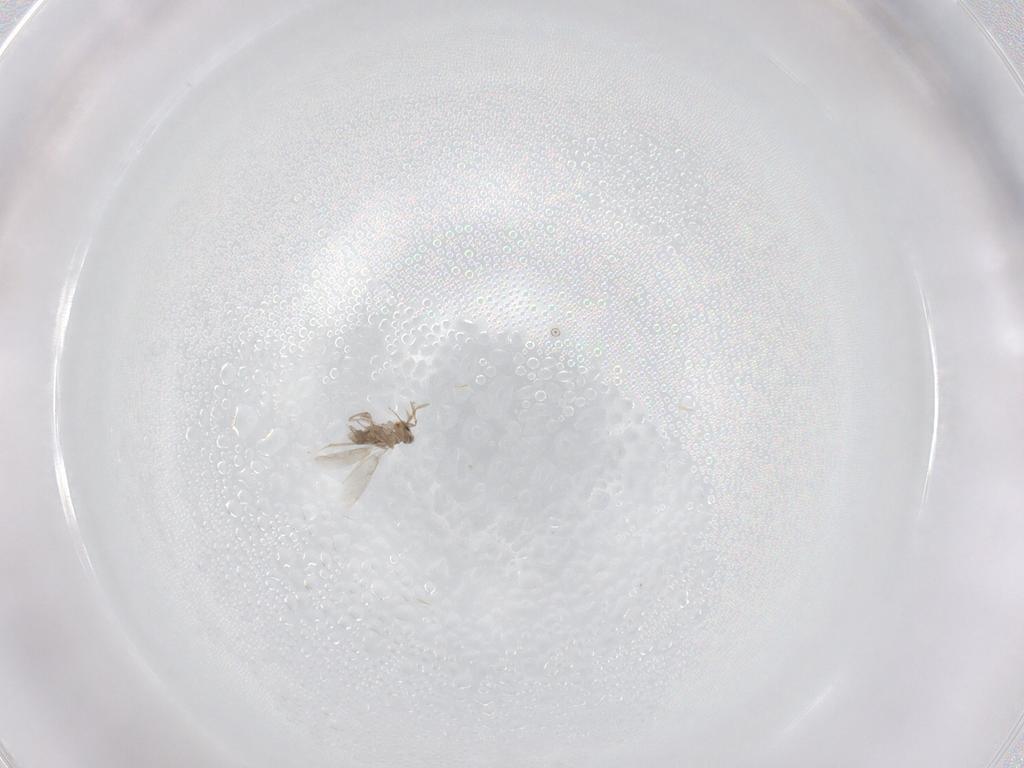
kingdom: Animalia
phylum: Arthropoda
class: Insecta
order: Hymenoptera
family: Aphelinidae
